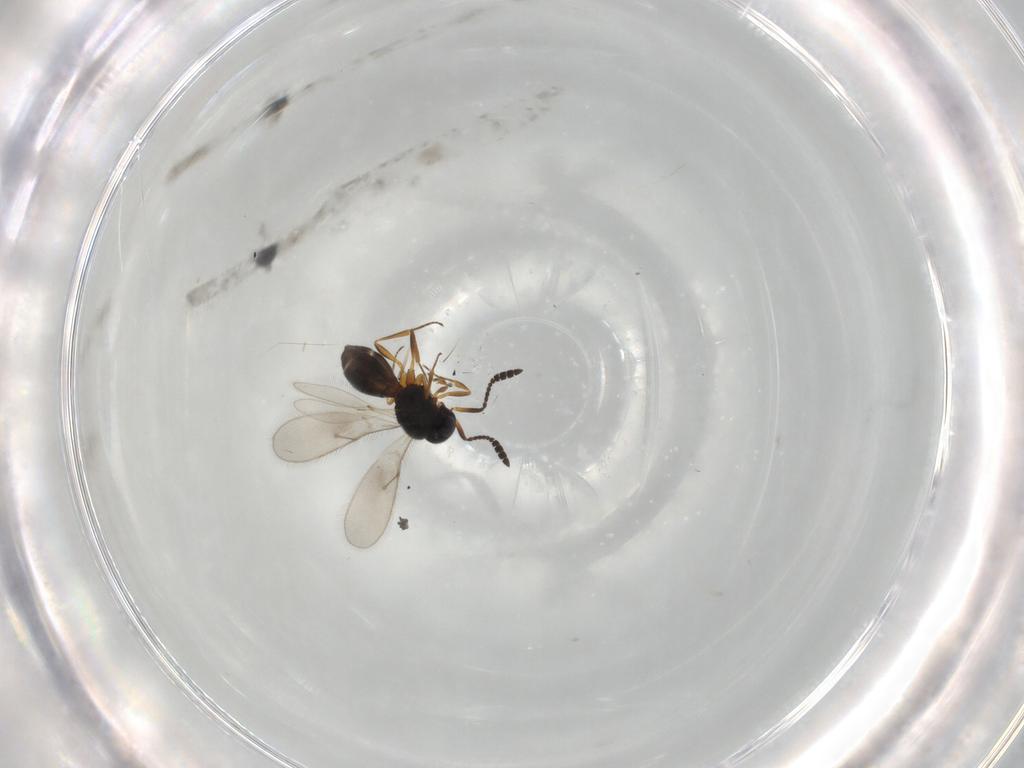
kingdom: Animalia
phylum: Arthropoda
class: Insecta
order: Hymenoptera
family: Scelionidae
